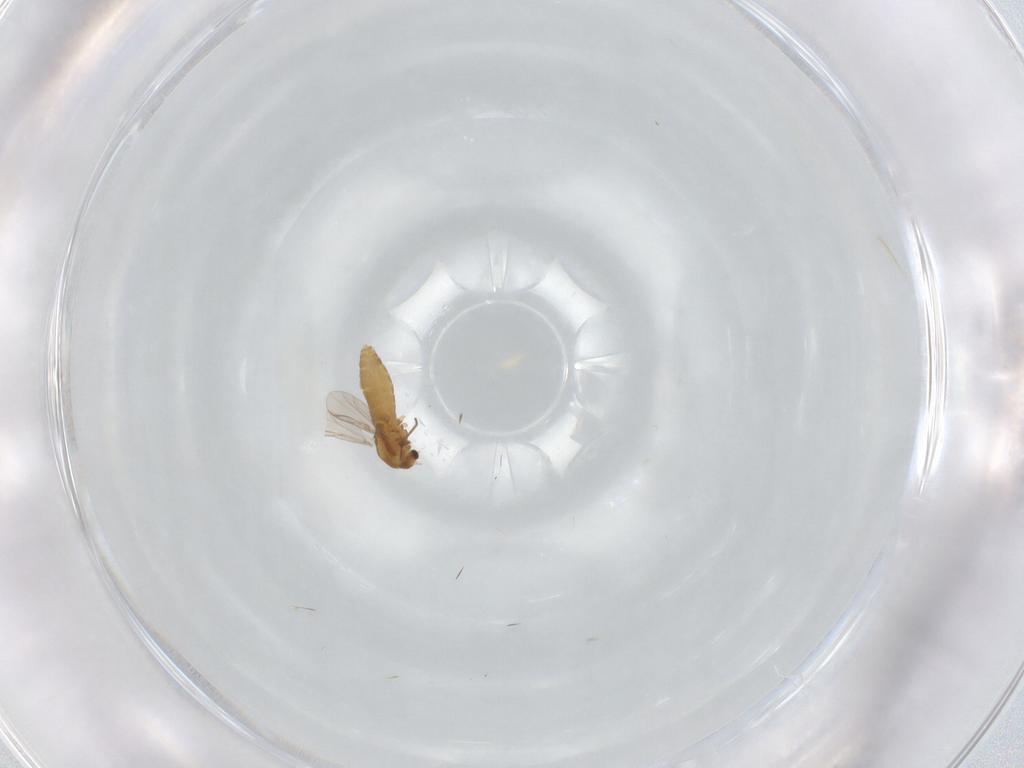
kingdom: Animalia
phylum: Arthropoda
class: Insecta
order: Diptera
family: Chironomidae
